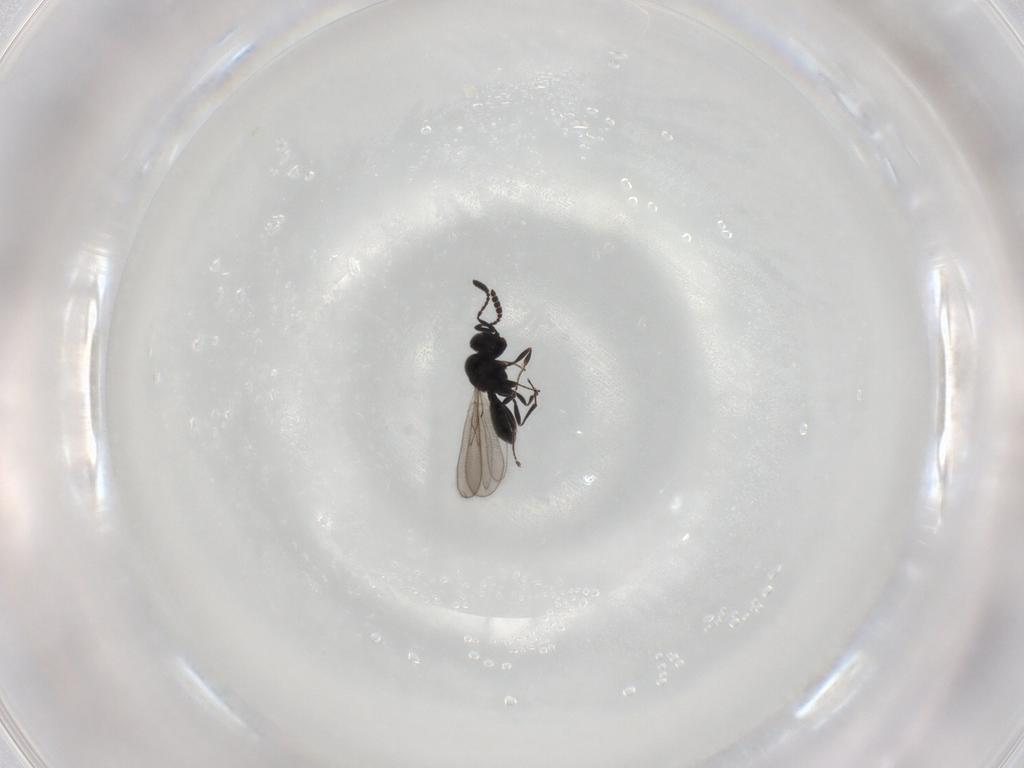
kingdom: Animalia
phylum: Arthropoda
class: Insecta
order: Hymenoptera
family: Scelionidae
